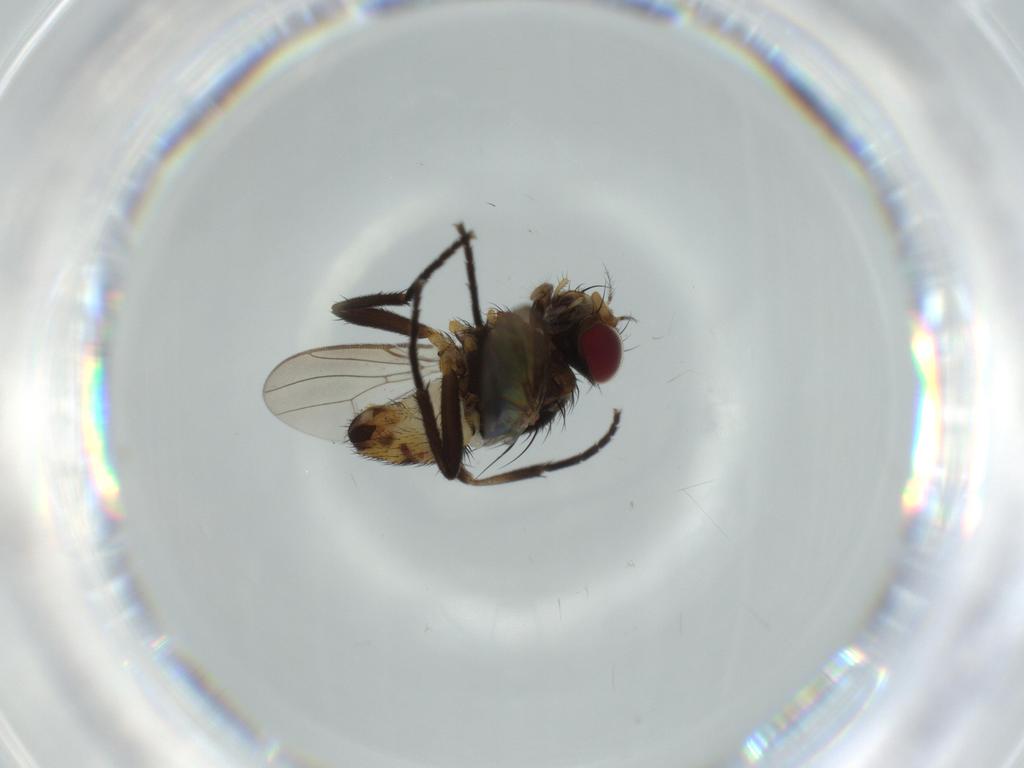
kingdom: Animalia
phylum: Arthropoda
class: Insecta
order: Diptera
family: Anthomyiidae
